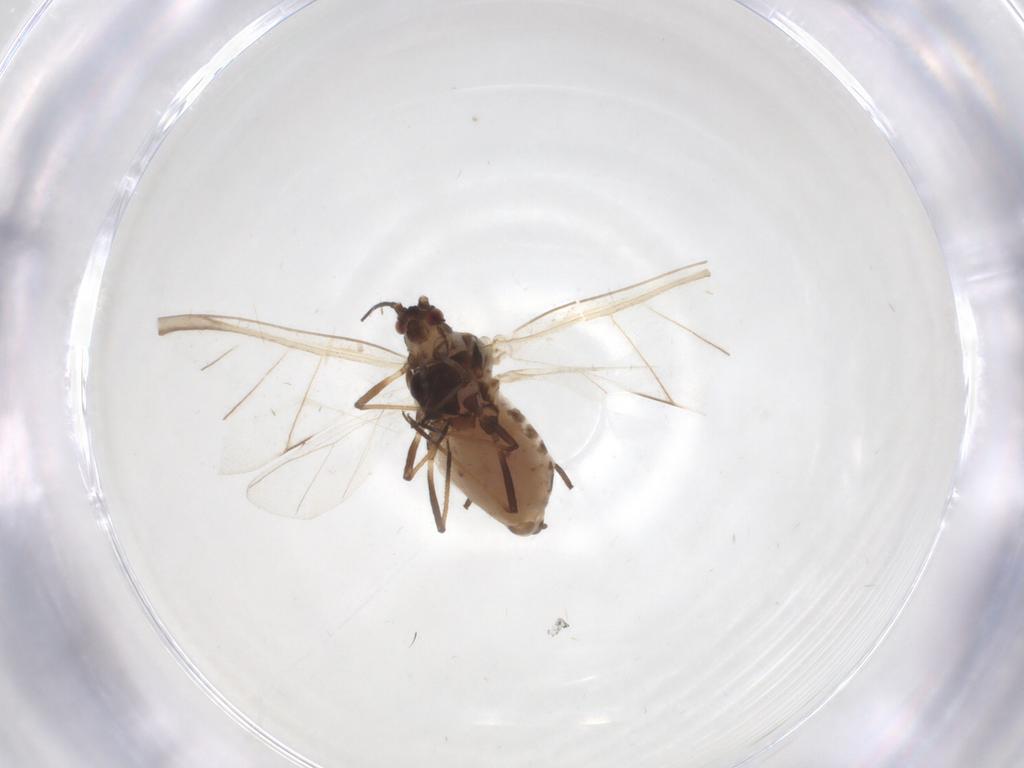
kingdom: Animalia
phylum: Arthropoda
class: Insecta
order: Hemiptera
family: Aphididae
